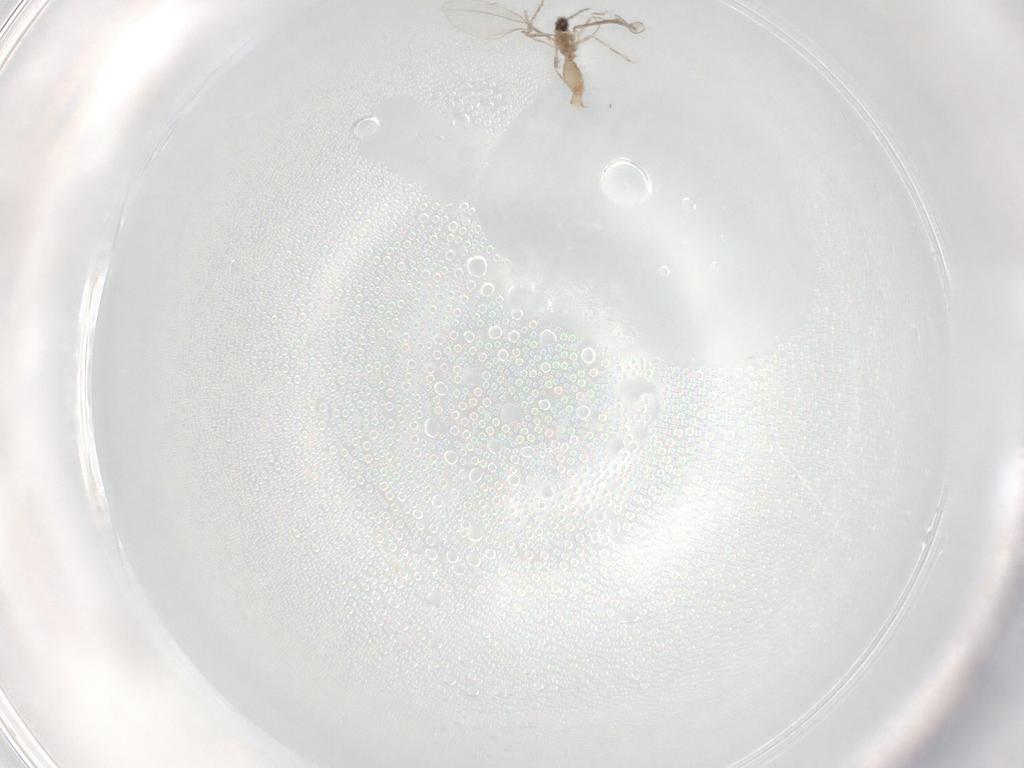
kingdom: Animalia
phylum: Arthropoda
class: Insecta
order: Diptera
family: Chironomidae
